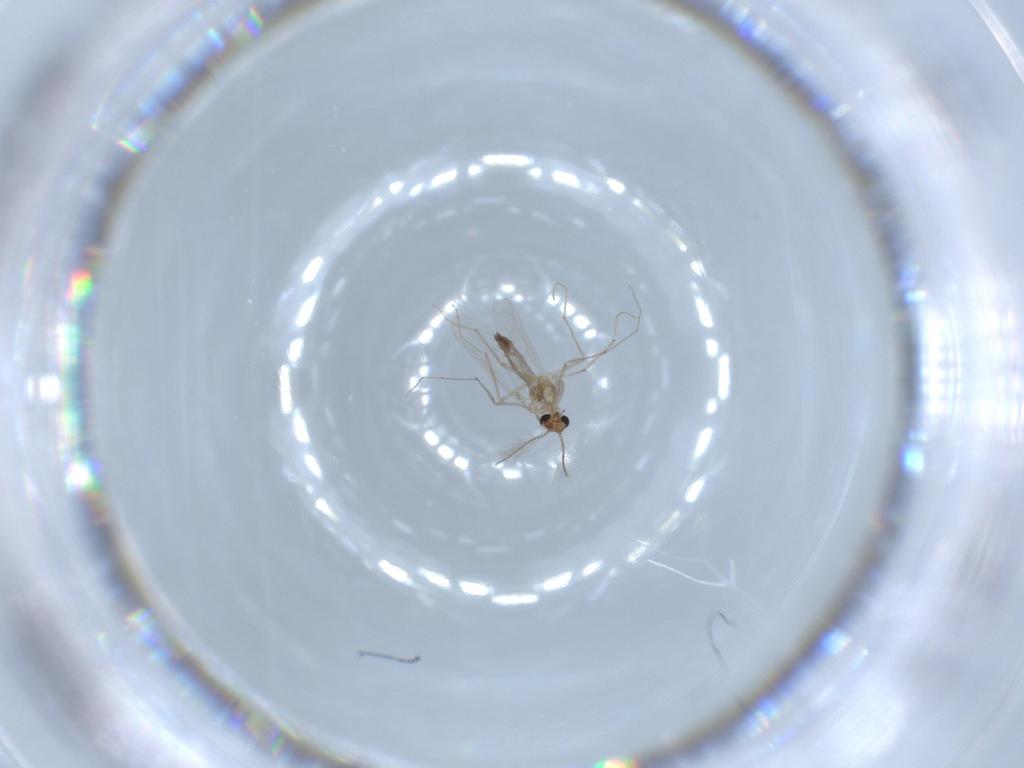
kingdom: Animalia
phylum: Arthropoda
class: Insecta
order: Diptera
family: Chironomidae
